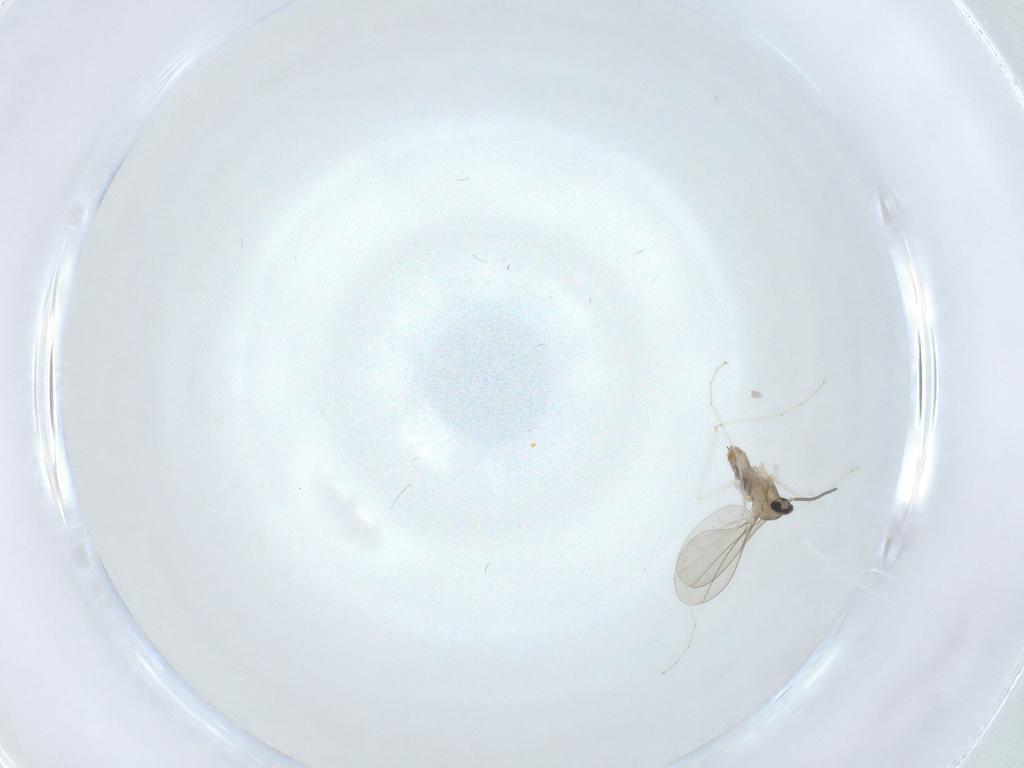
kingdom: Animalia
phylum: Arthropoda
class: Insecta
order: Diptera
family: Cecidomyiidae
